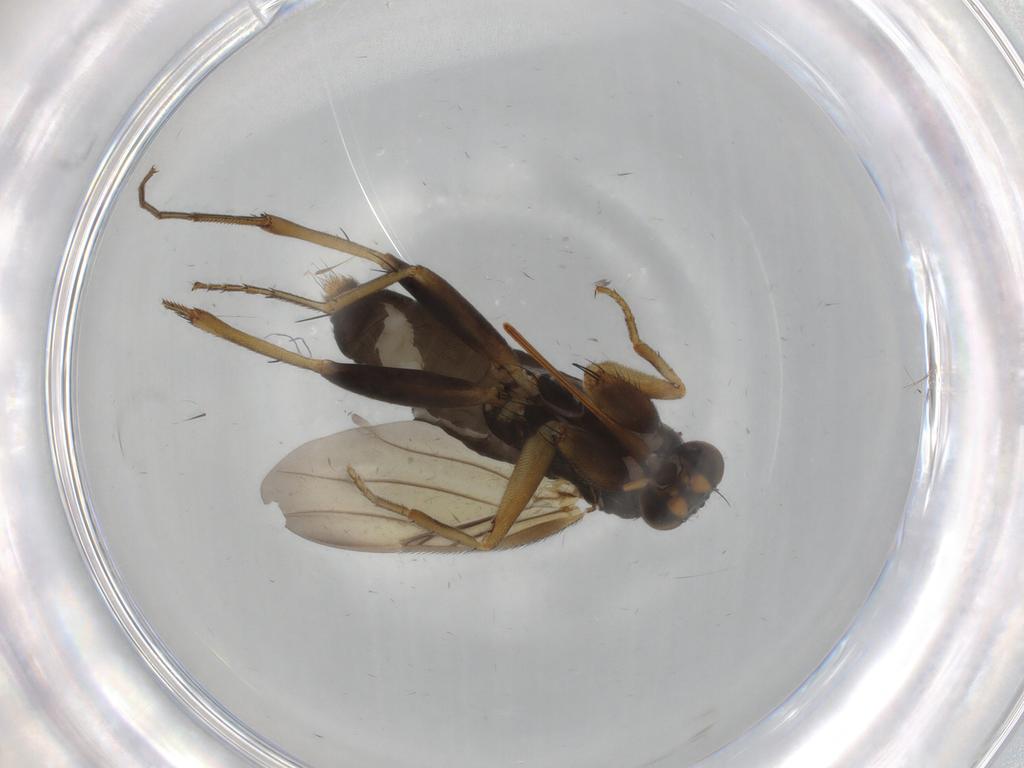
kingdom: Animalia
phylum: Arthropoda
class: Insecta
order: Diptera
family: Phoridae
